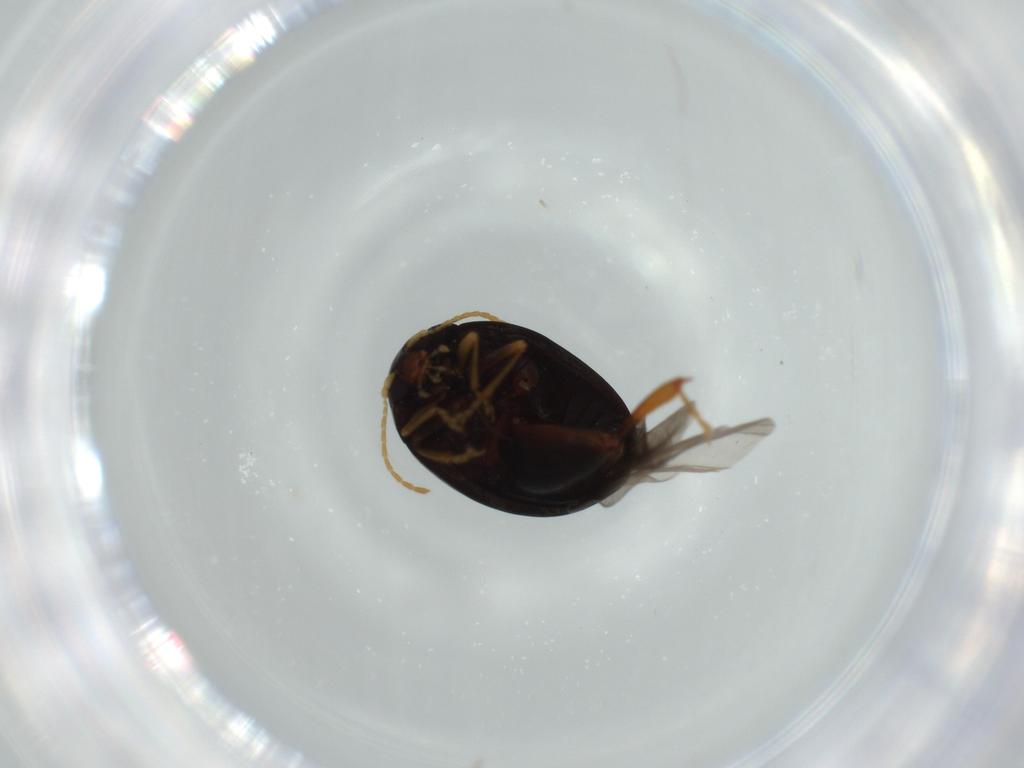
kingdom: Animalia
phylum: Arthropoda
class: Insecta
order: Coleoptera
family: Chrysomelidae
